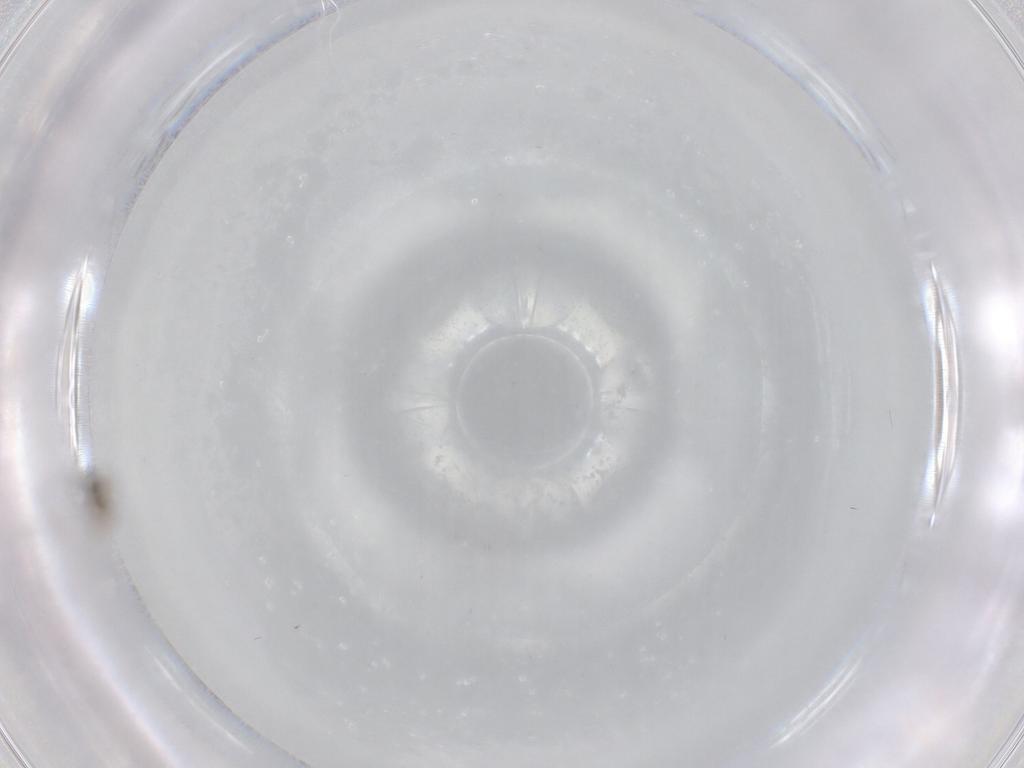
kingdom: Animalia
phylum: Arthropoda
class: Insecta
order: Diptera
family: Cecidomyiidae
